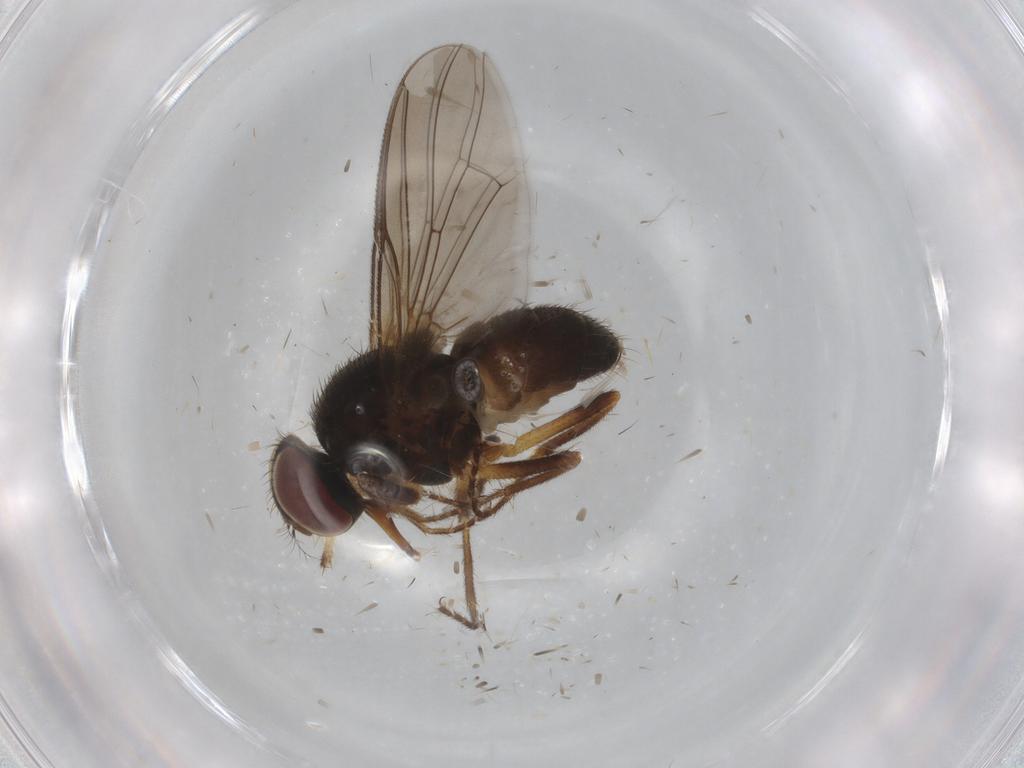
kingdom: Animalia
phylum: Arthropoda
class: Insecta
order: Diptera
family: Muscidae
